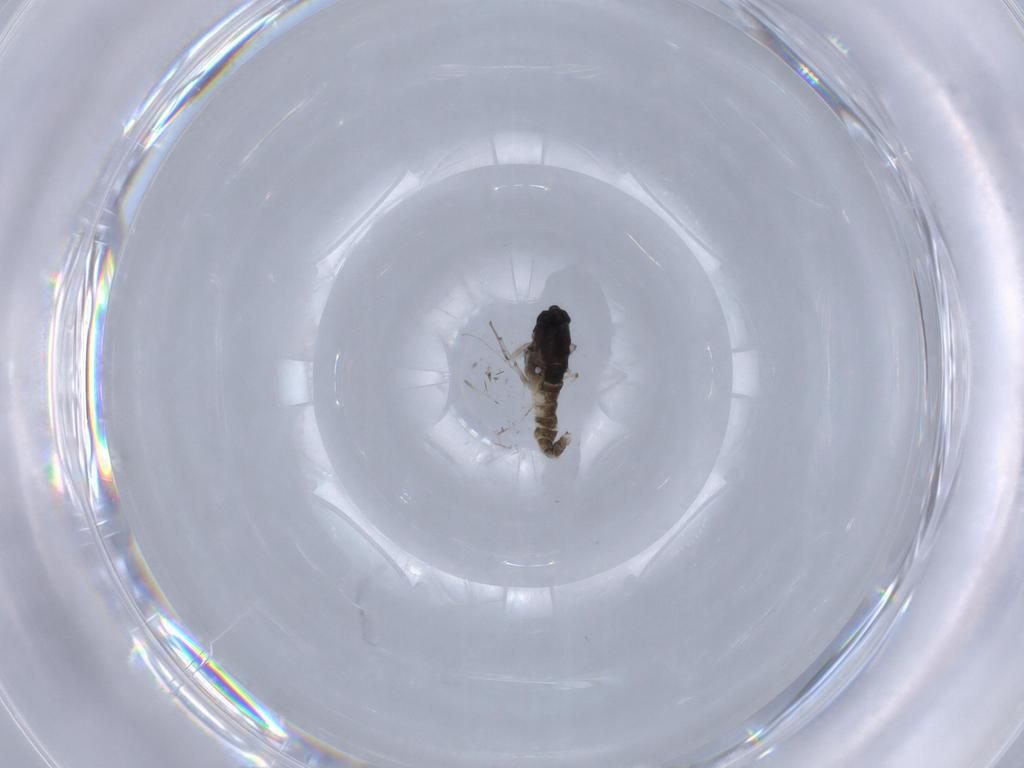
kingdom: Animalia
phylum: Arthropoda
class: Insecta
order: Diptera
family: Chironomidae
